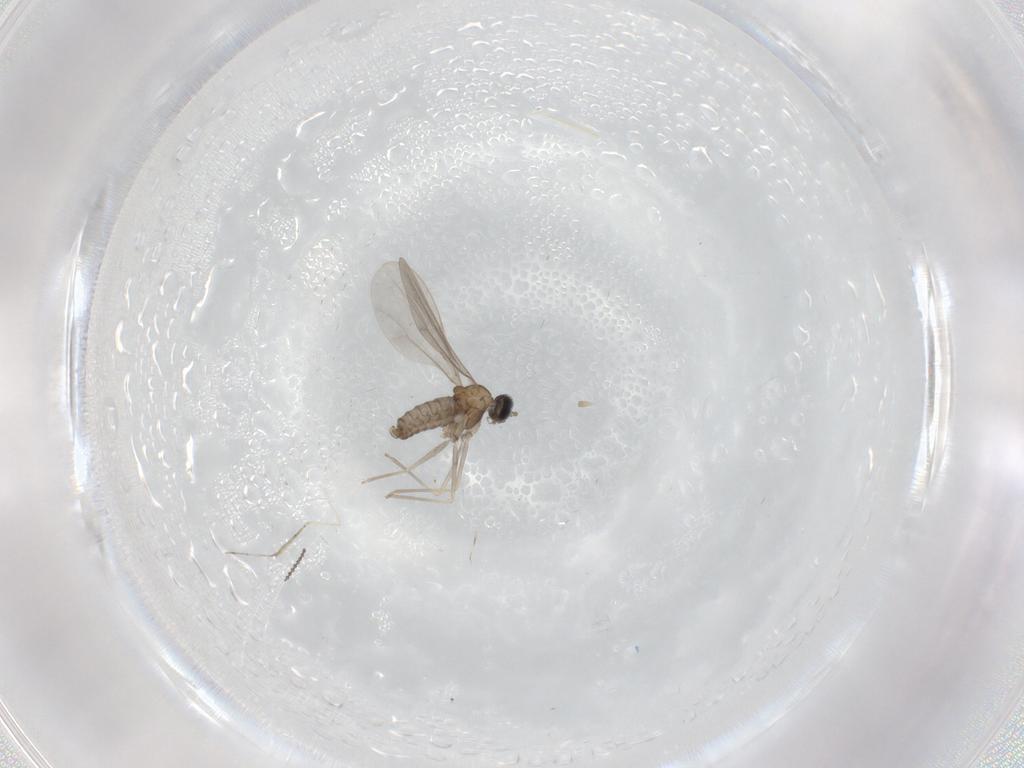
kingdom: Animalia
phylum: Arthropoda
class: Insecta
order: Diptera
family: Cecidomyiidae
